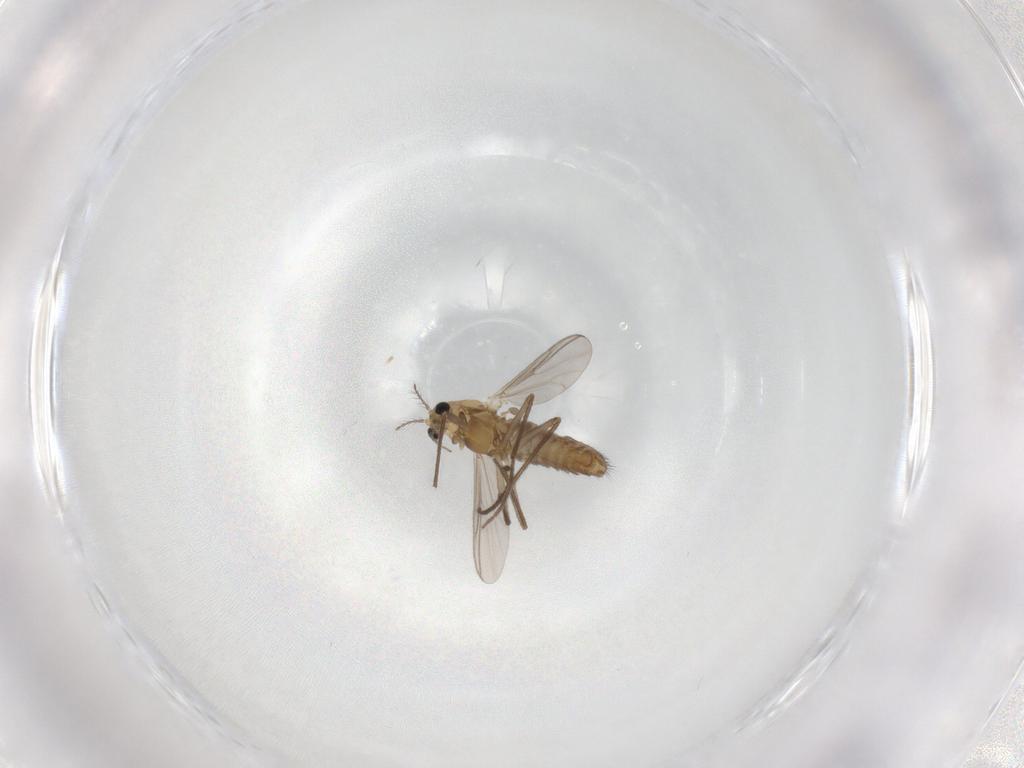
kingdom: Animalia
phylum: Arthropoda
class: Insecta
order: Diptera
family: Chironomidae
